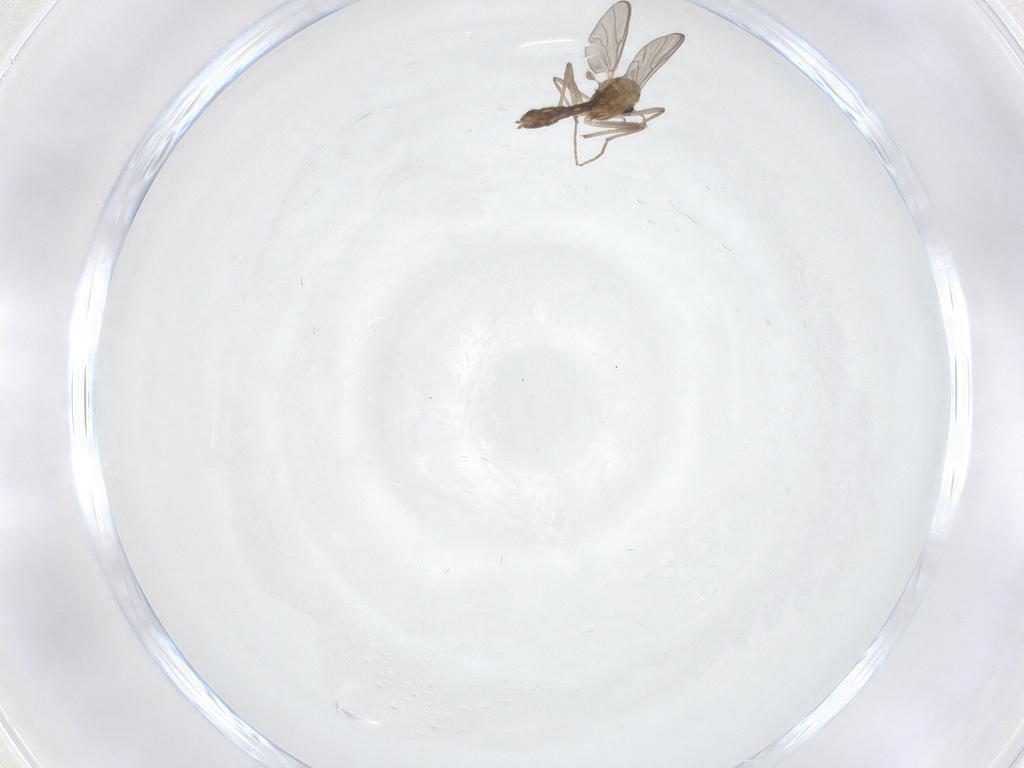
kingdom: Animalia
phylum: Arthropoda
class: Insecta
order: Diptera
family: Chironomidae
